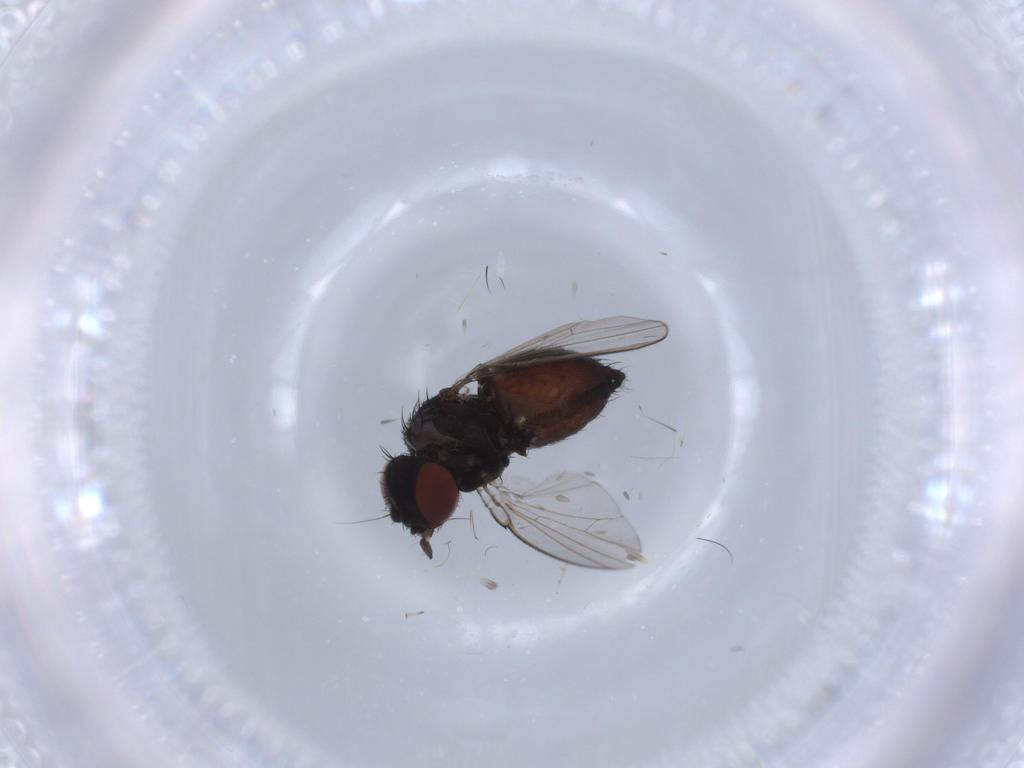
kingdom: Animalia
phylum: Arthropoda
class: Insecta
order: Diptera
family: Milichiidae
